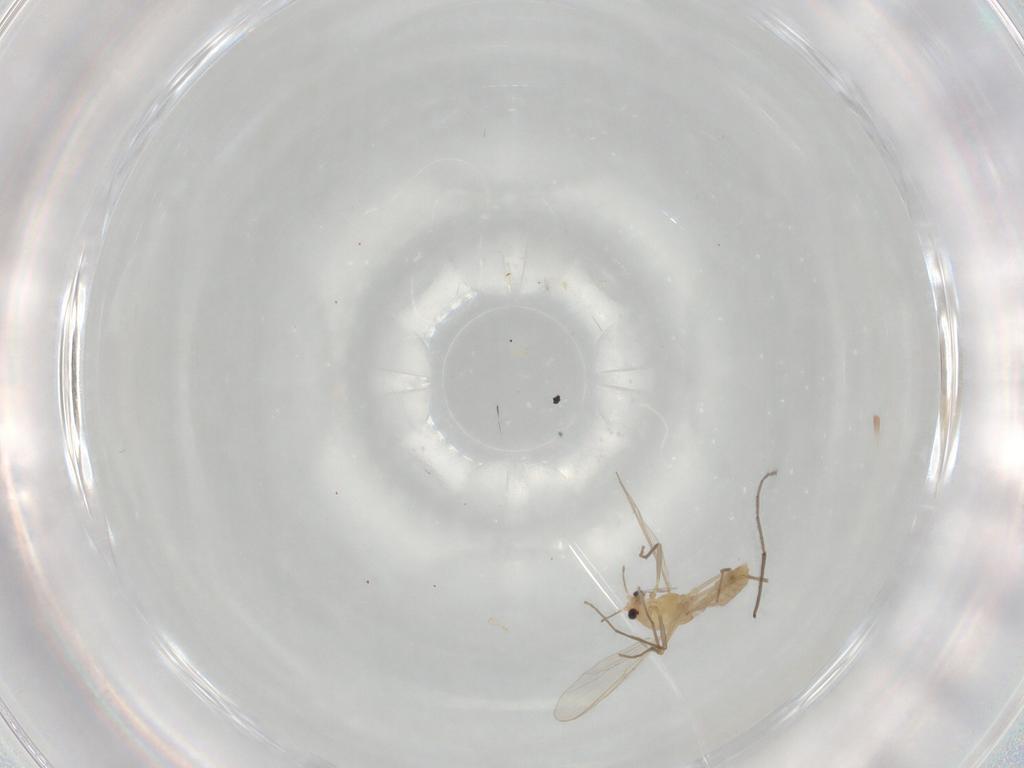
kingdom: Animalia
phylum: Arthropoda
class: Insecta
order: Diptera
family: Chironomidae
